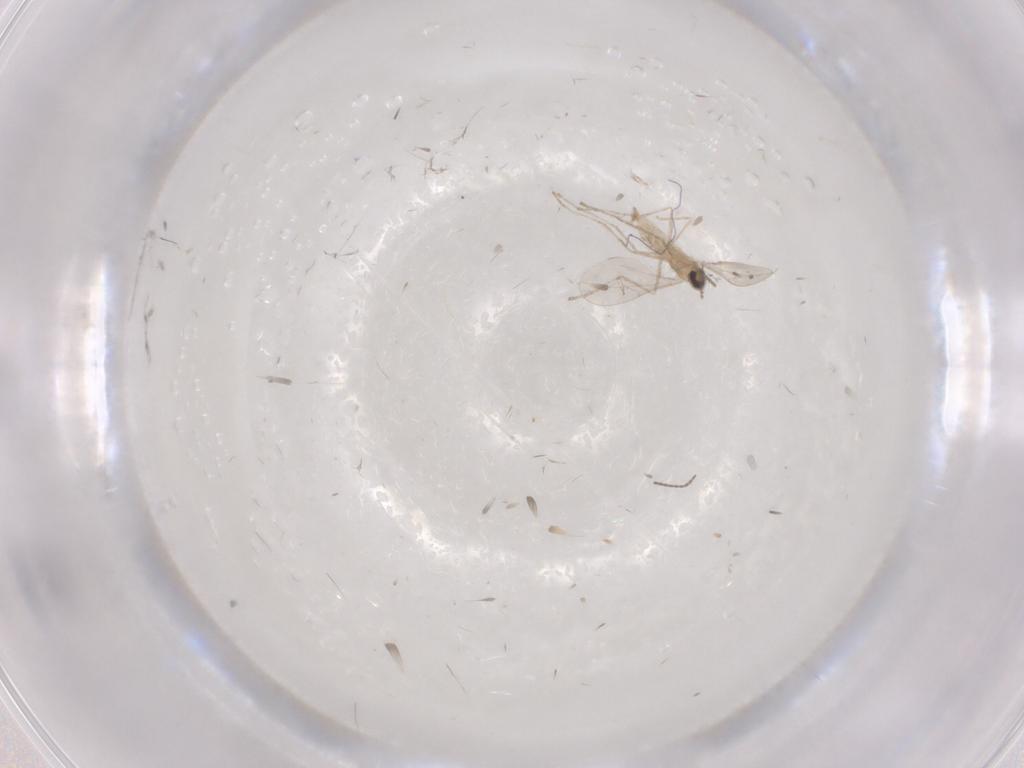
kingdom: Animalia
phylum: Arthropoda
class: Insecta
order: Diptera
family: Cecidomyiidae
